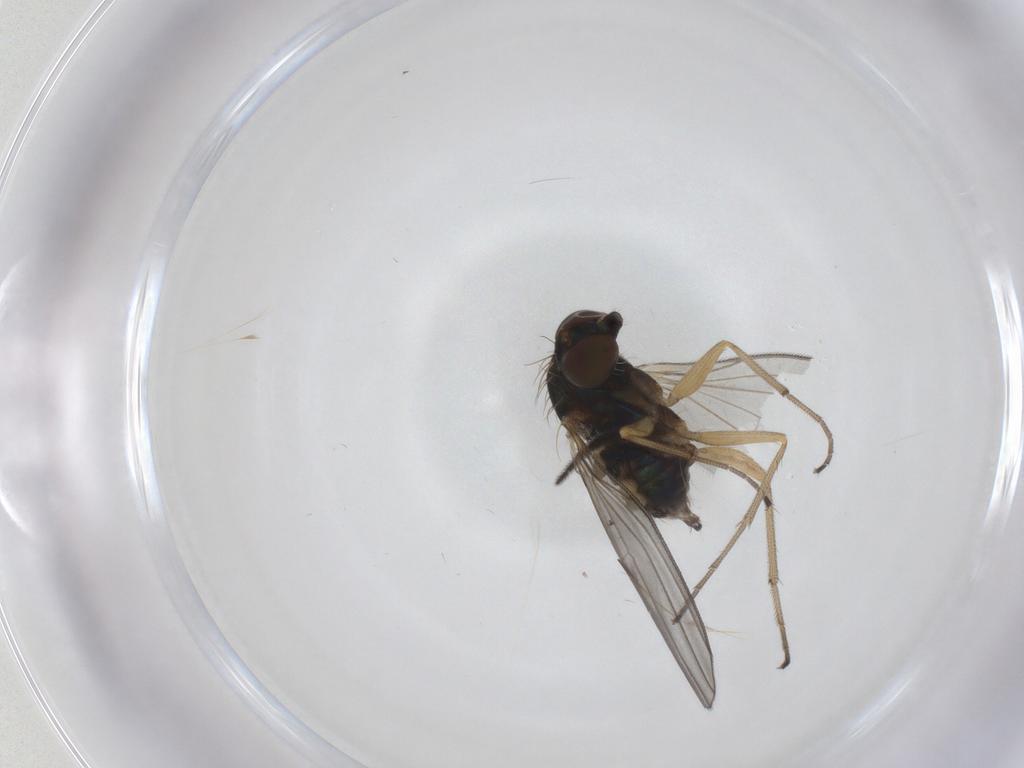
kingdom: Animalia
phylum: Arthropoda
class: Insecta
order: Diptera
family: Dolichopodidae
